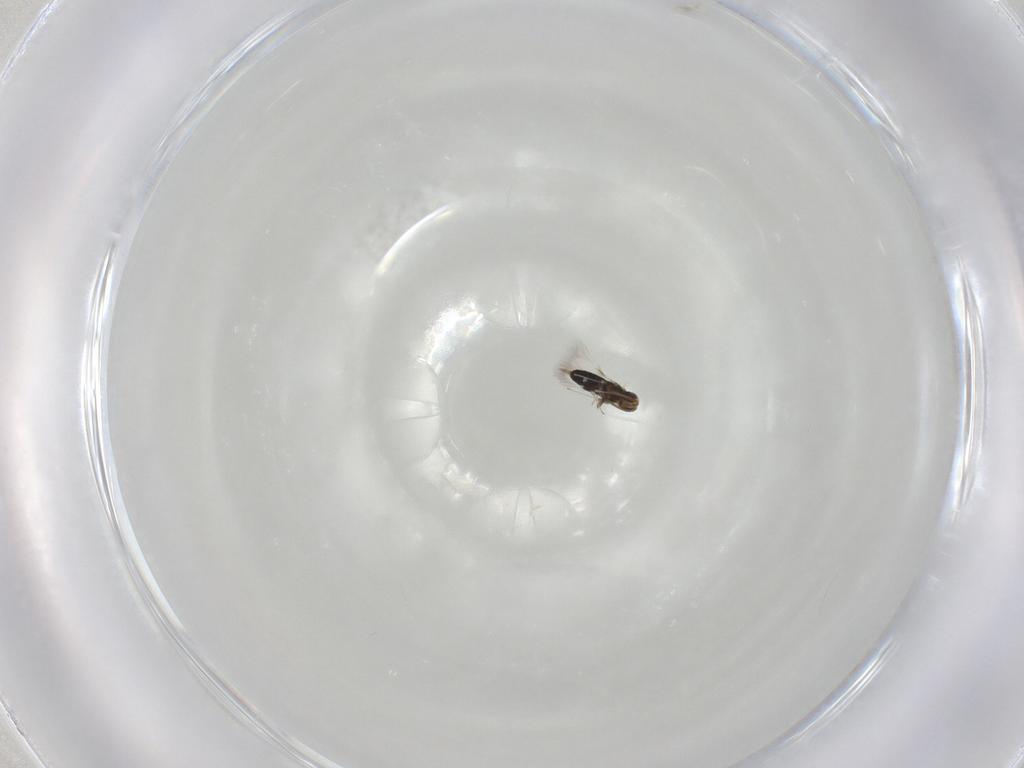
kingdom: Animalia
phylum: Arthropoda
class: Insecta
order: Hymenoptera
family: Signiphoridae
